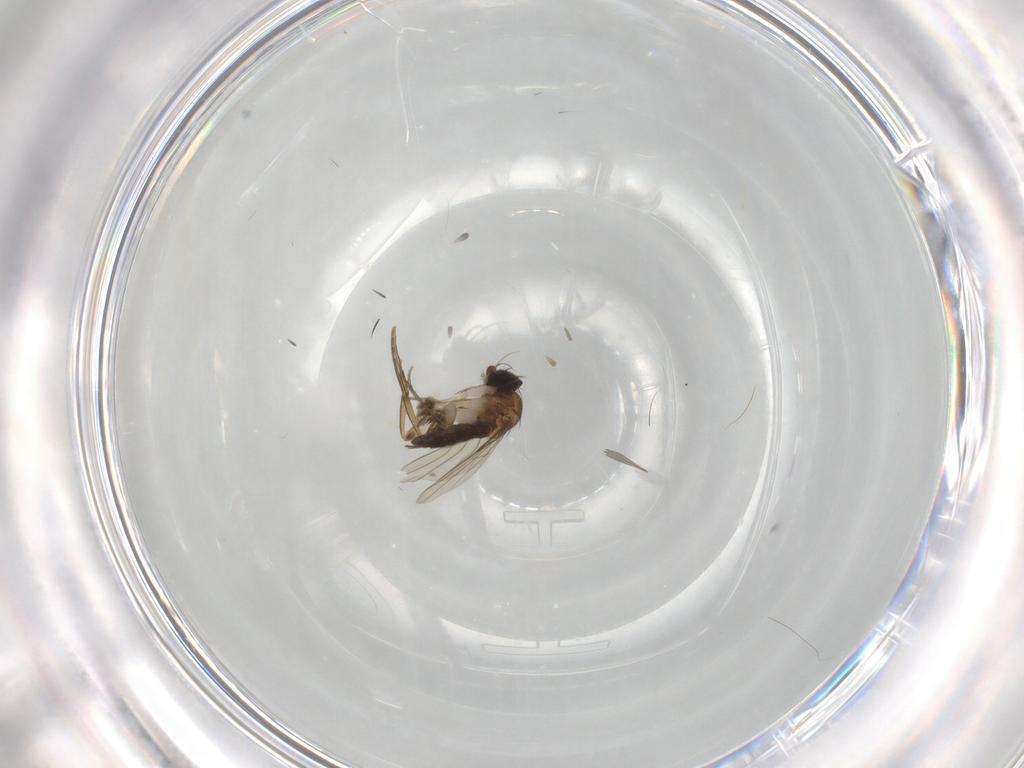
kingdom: Animalia
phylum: Arthropoda
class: Insecta
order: Diptera
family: Sciaridae
